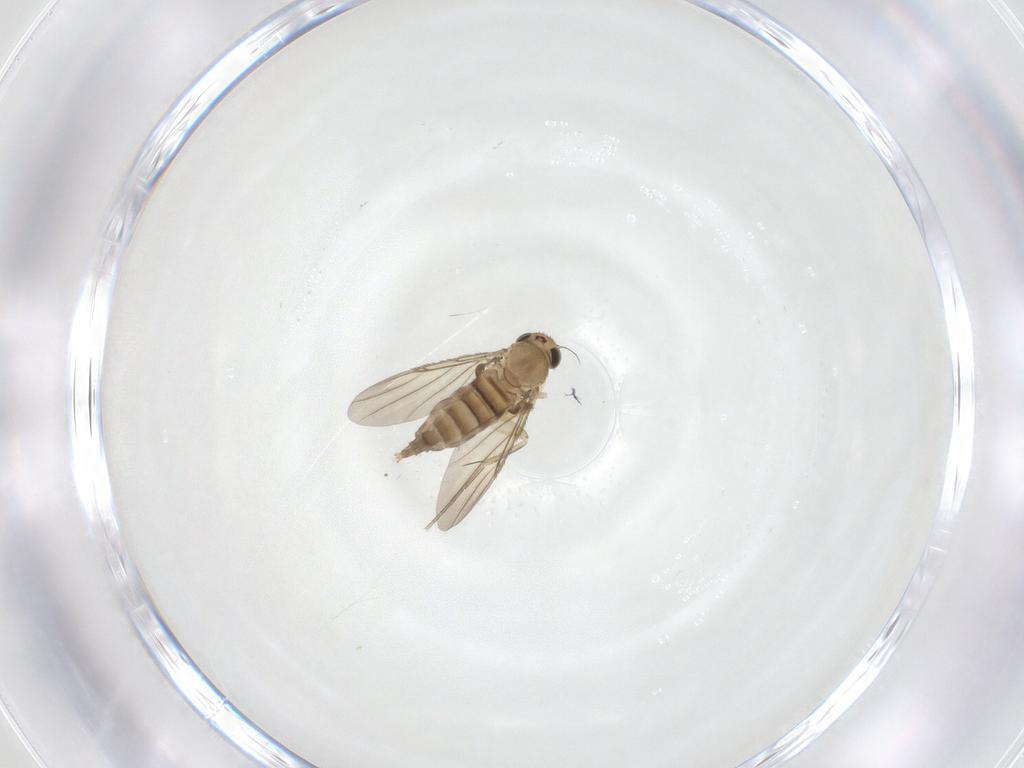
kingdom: Animalia
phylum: Arthropoda
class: Insecta
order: Diptera
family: Phoridae
